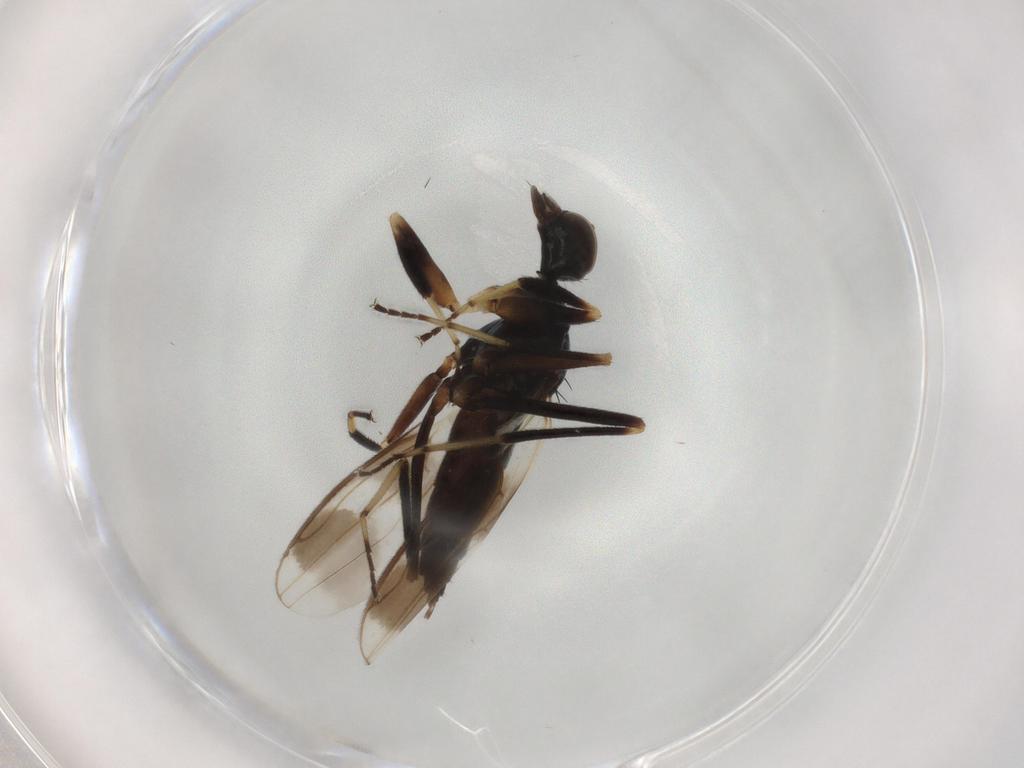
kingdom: Animalia
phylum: Arthropoda
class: Insecta
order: Diptera
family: Hybotidae
